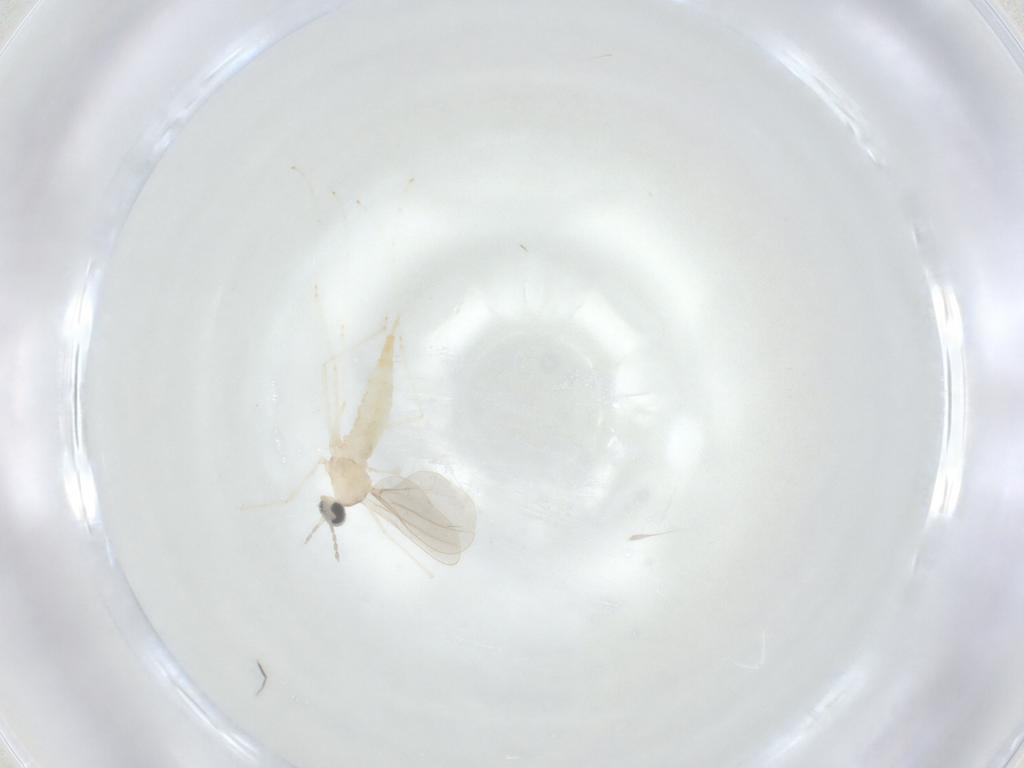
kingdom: Animalia
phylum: Arthropoda
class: Insecta
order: Diptera
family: Cecidomyiidae
